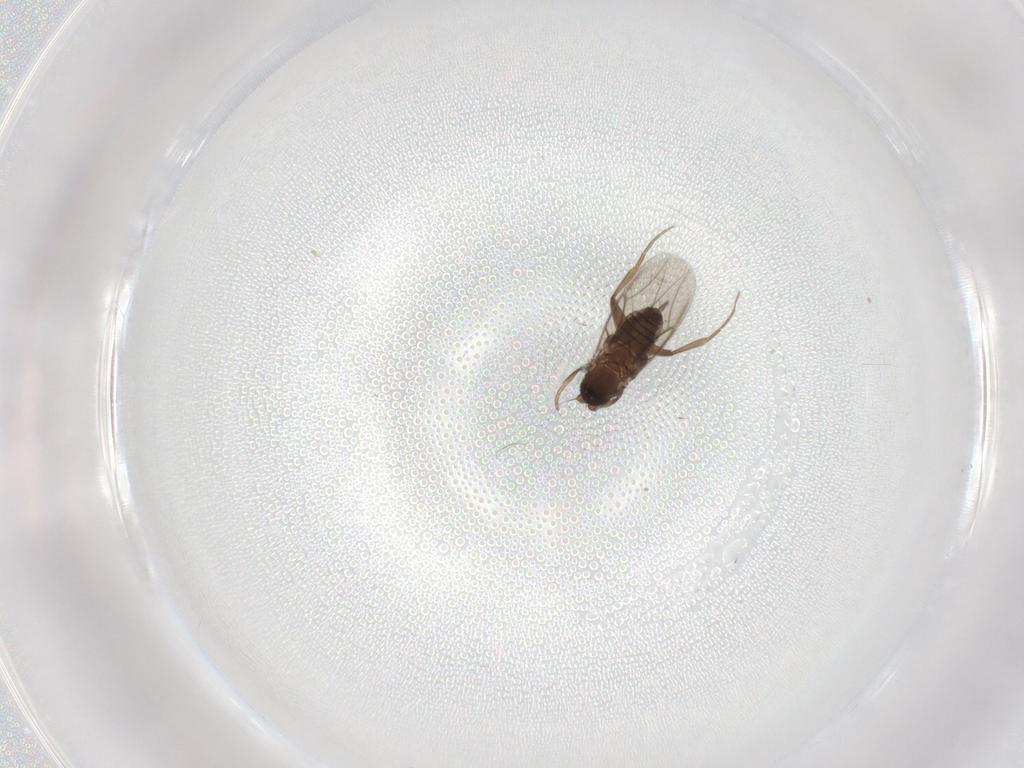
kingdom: Animalia
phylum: Arthropoda
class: Insecta
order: Diptera
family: Phoridae
